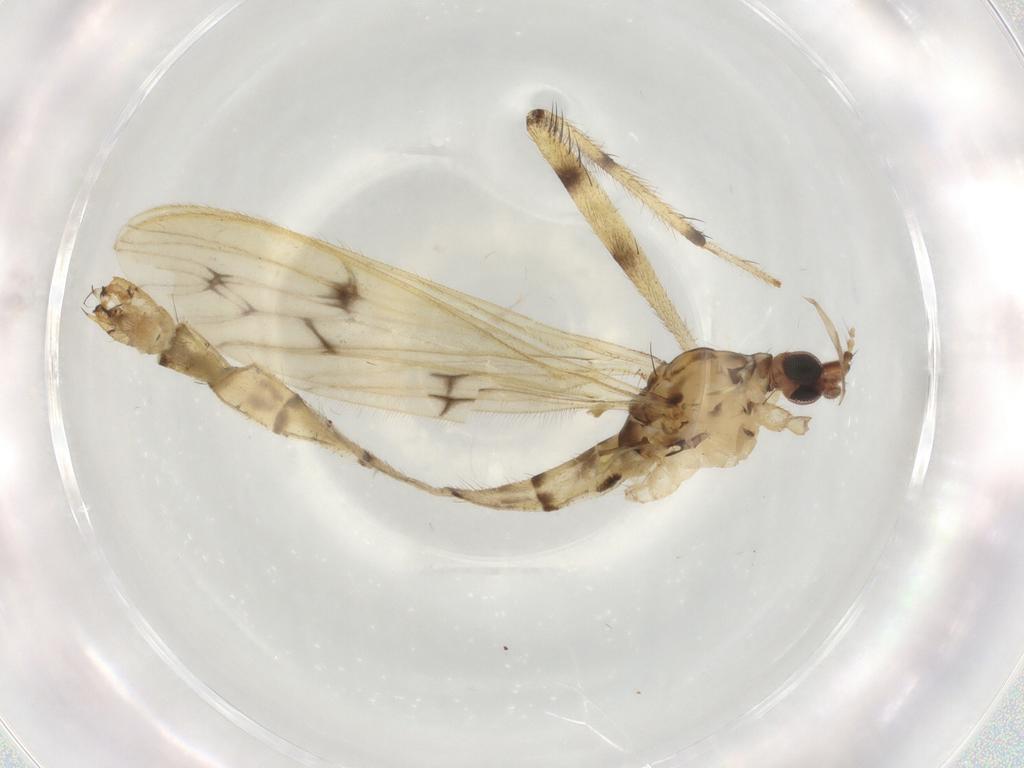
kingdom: Animalia
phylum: Arthropoda
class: Insecta
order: Diptera
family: Limoniidae
